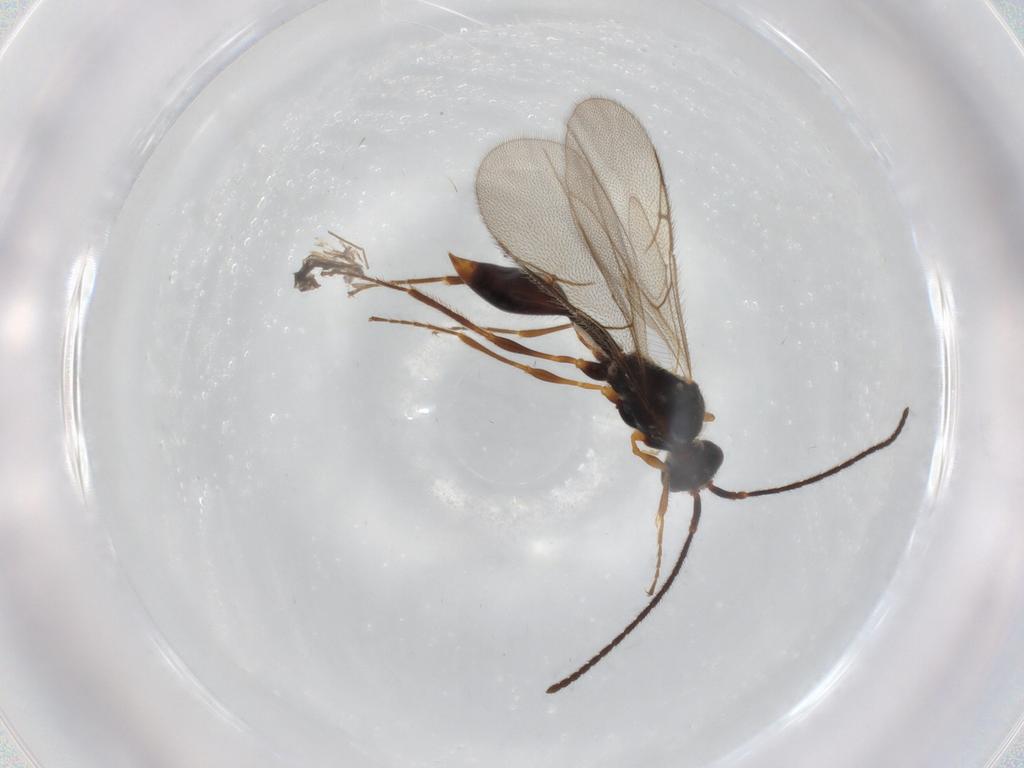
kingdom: Animalia
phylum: Arthropoda
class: Insecta
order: Hymenoptera
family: Diapriidae
